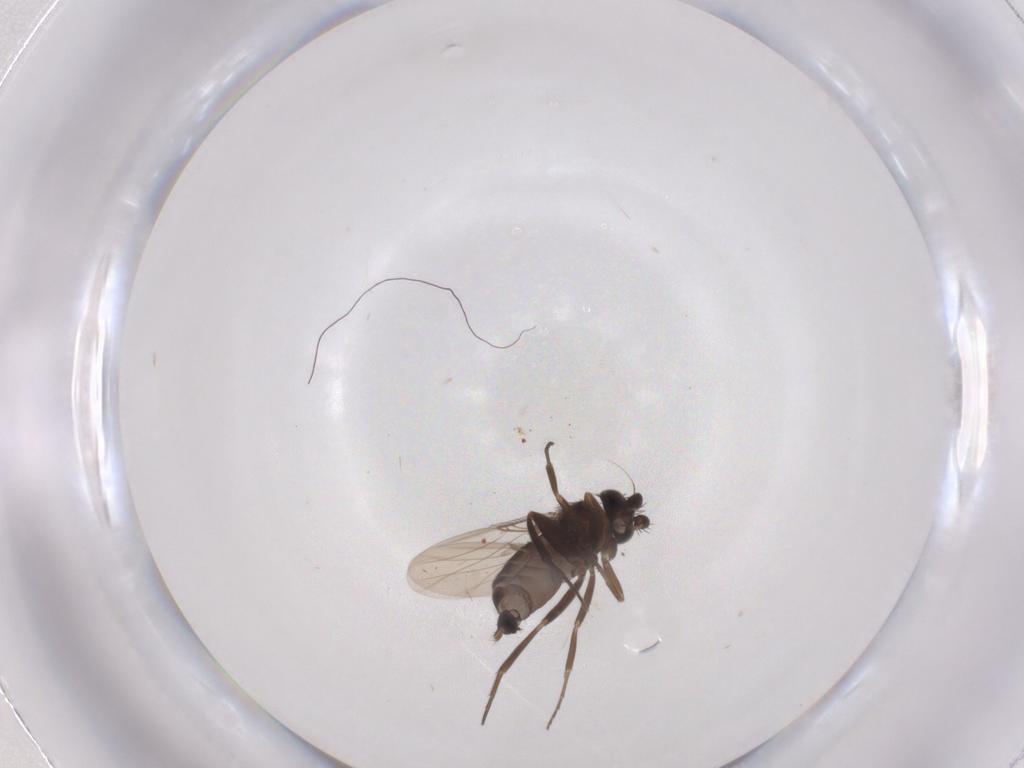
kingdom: Animalia
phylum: Arthropoda
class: Insecta
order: Diptera
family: Phoridae
